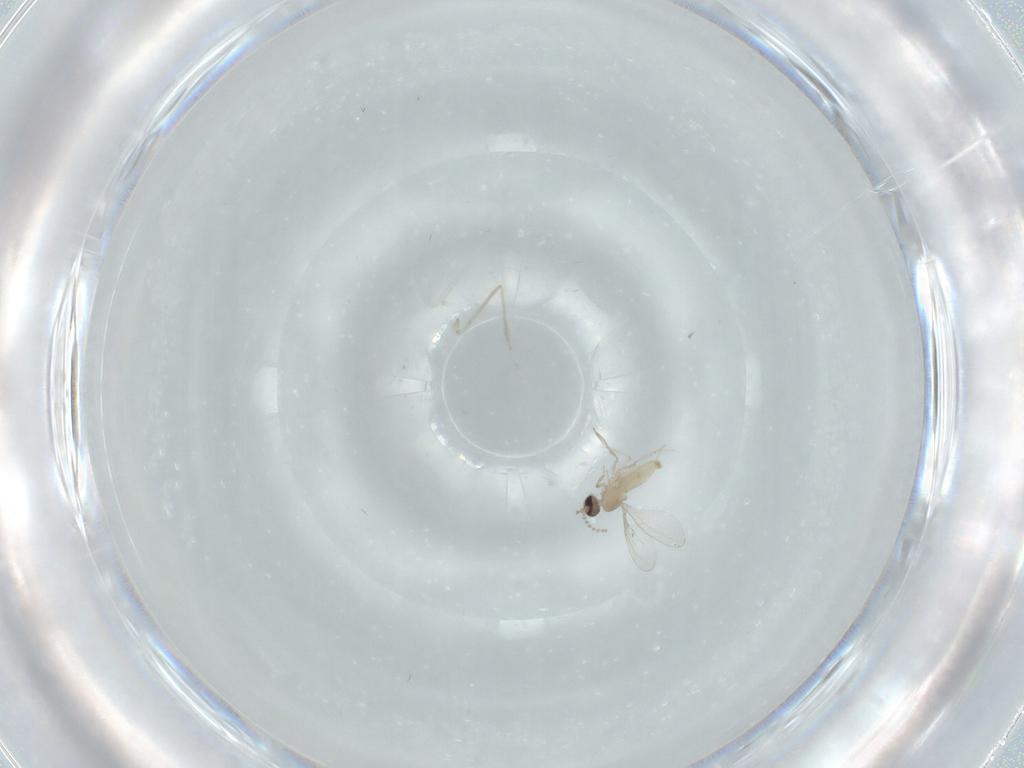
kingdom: Animalia
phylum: Arthropoda
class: Insecta
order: Diptera
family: Cecidomyiidae
